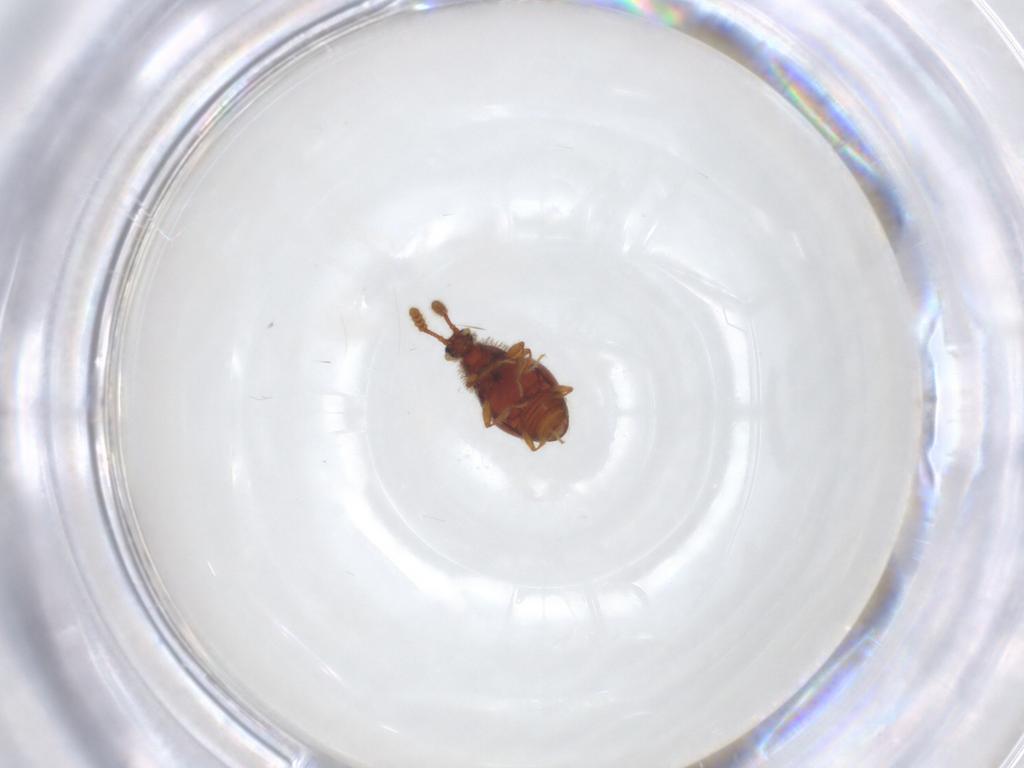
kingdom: Animalia
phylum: Arthropoda
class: Insecta
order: Coleoptera
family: Staphylinidae
